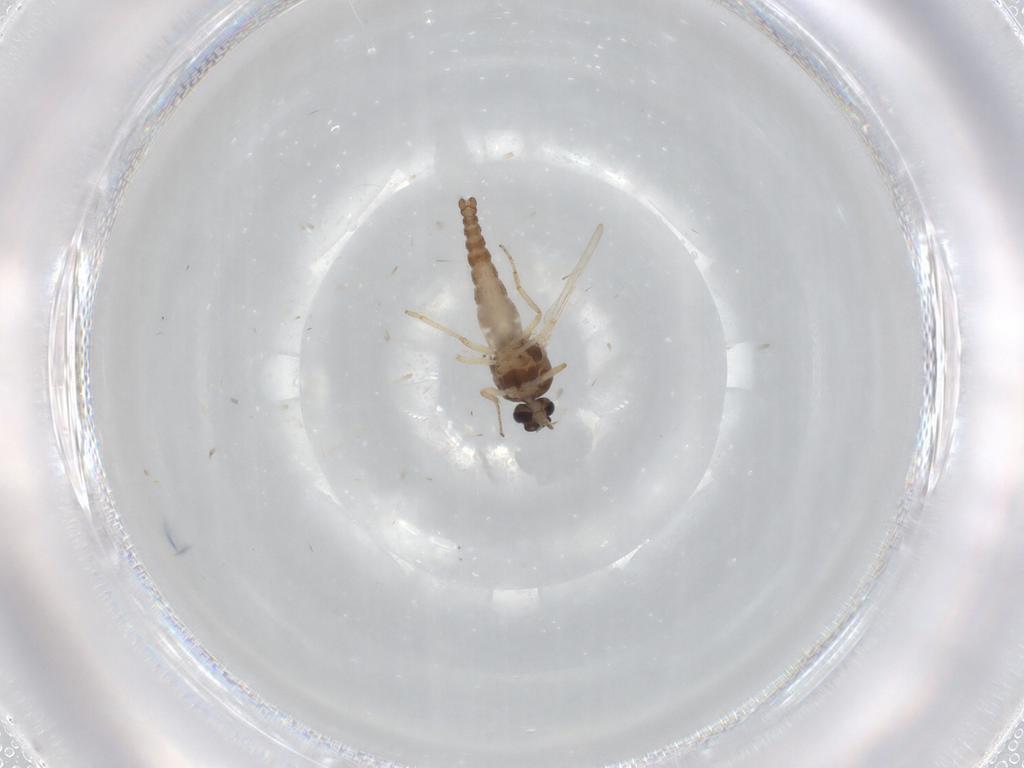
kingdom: Animalia
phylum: Arthropoda
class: Insecta
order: Diptera
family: Ceratopogonidae
